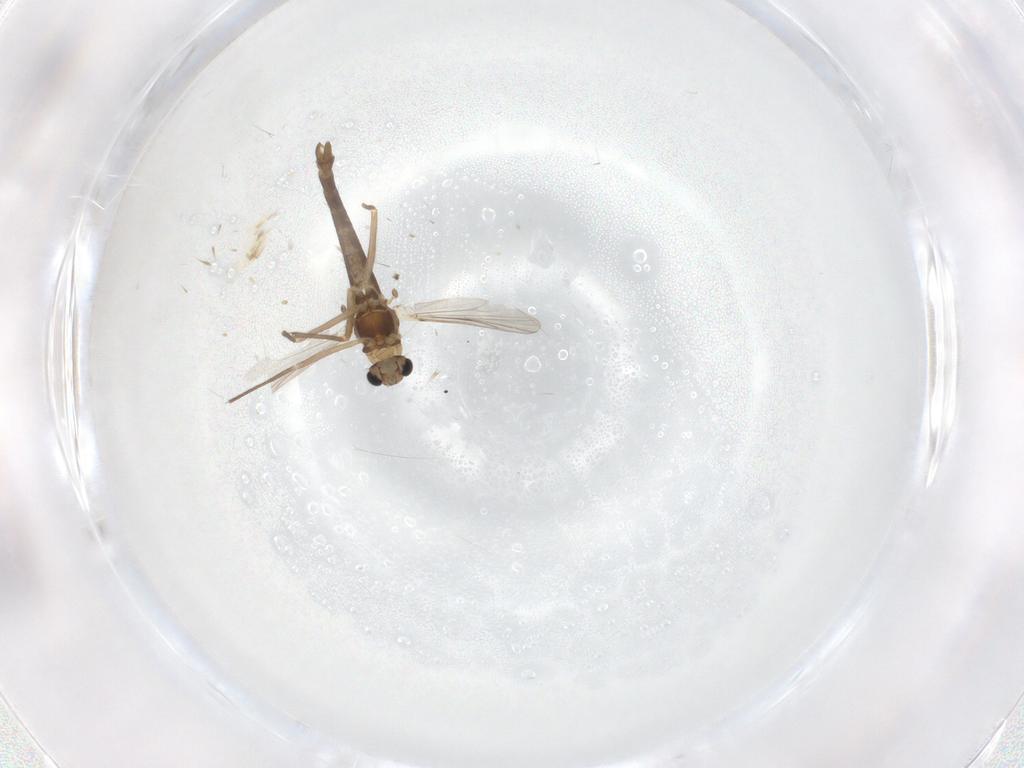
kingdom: Animalia
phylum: Arthropoda
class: Insecta
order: Diptera
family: Chironomidae
